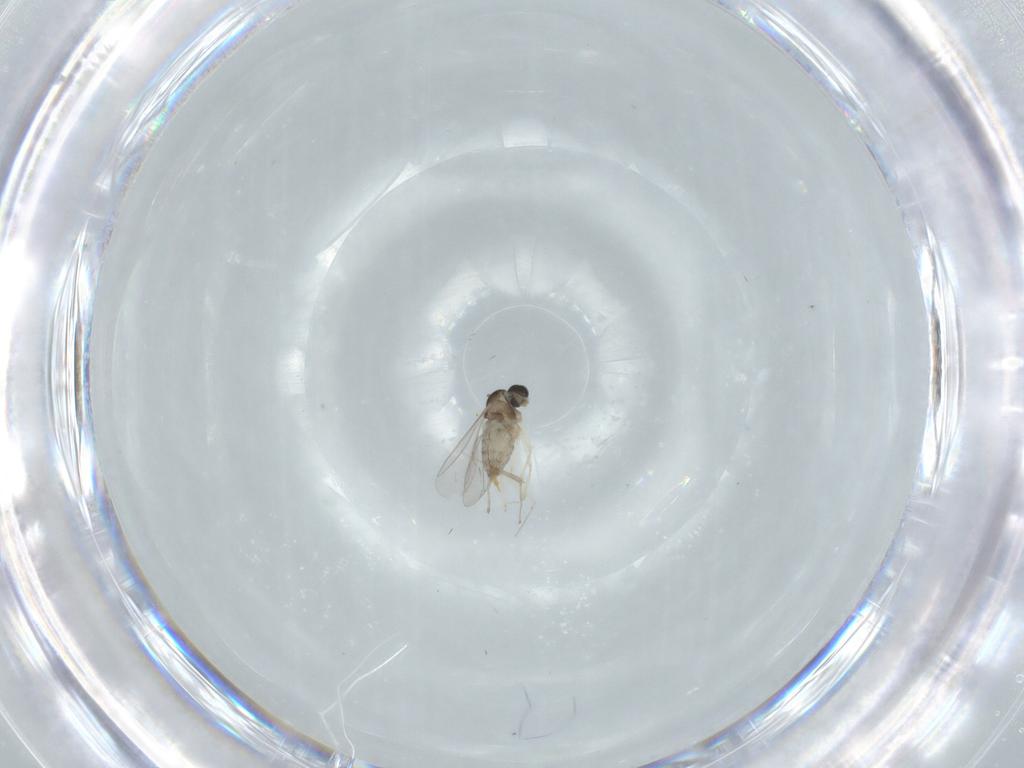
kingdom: Animalia
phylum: Arthropoda
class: Insecta
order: Diptera
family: Cecidomyiidae
